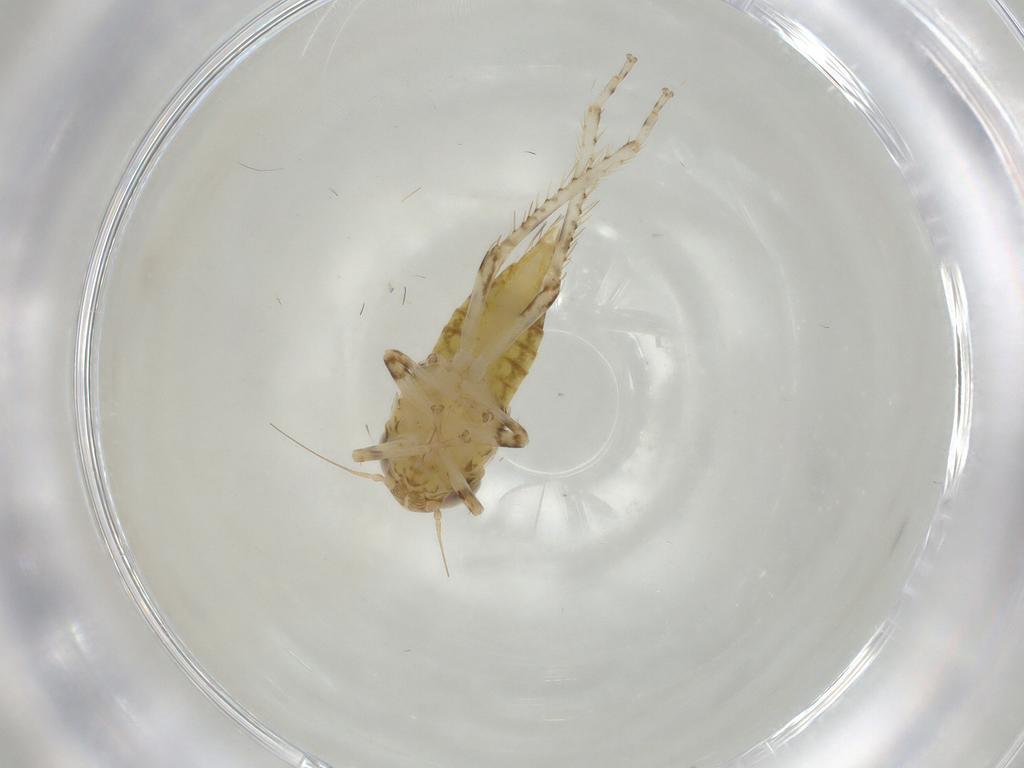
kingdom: Animalia
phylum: Arthropoda
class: Insecta
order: Hemiptera
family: Cicadellidae
